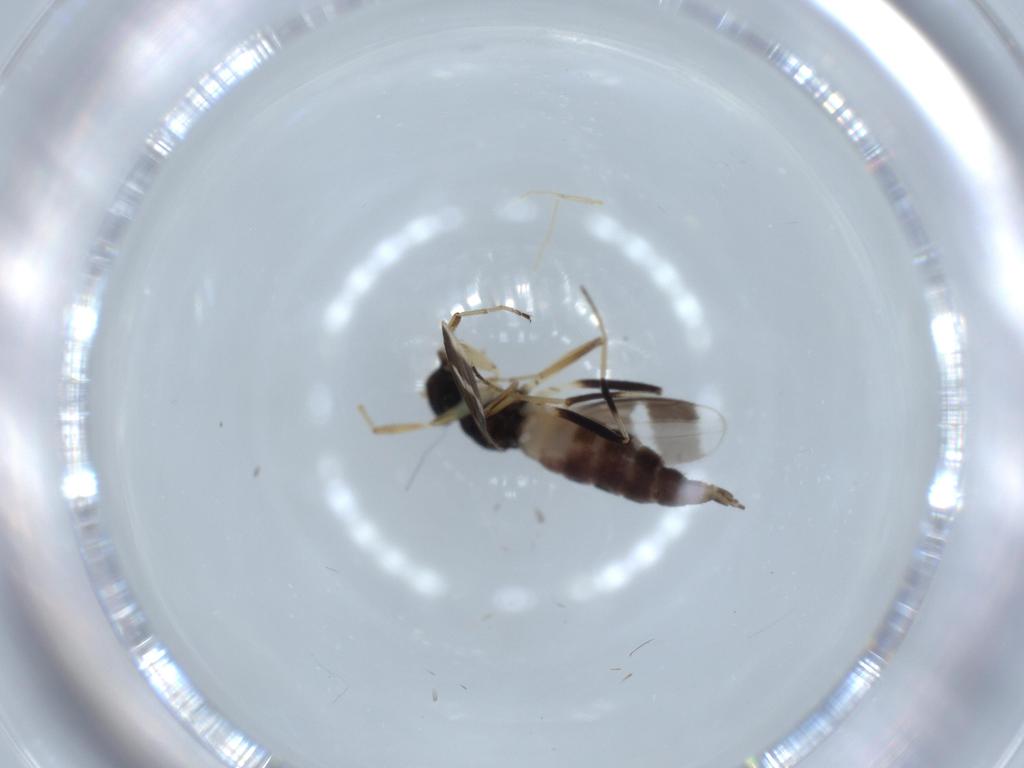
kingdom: Animalia
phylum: Arthropoda
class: Insecta
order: Diptera
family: Hybotidae
